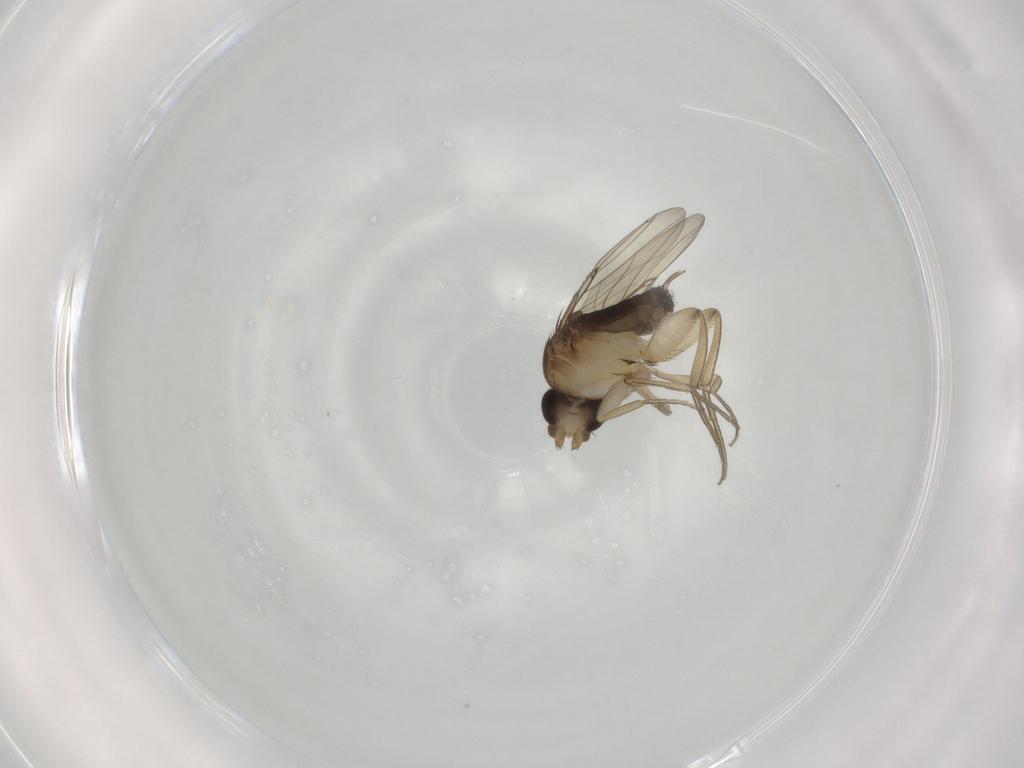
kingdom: Animalia
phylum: Arthropoda
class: Insecta
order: Diptera
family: Phoridae
